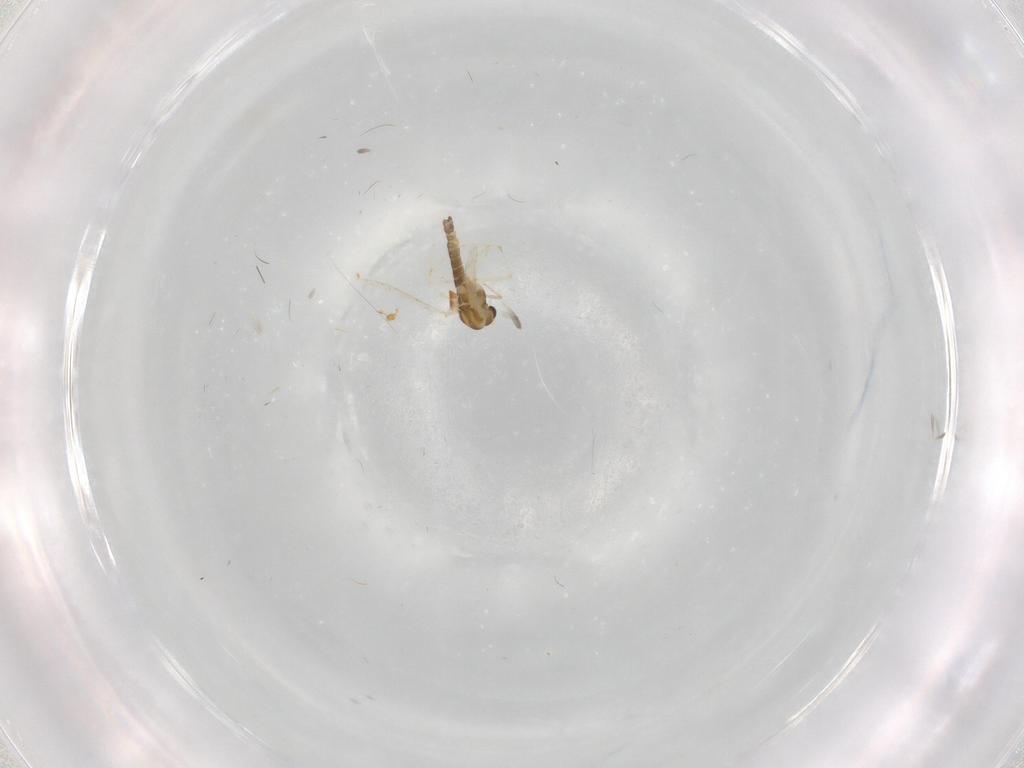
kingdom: Animalia
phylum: Arthropoda
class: Insecta
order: Diptera
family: Chironomidae
